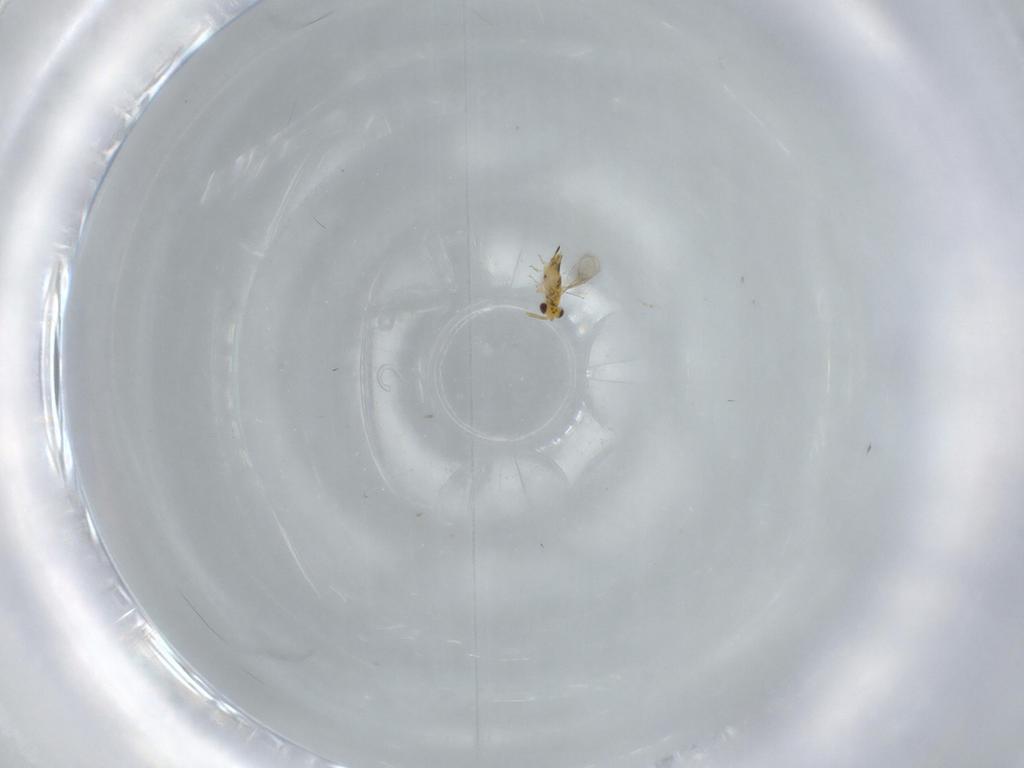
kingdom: Animalia
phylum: Arthropoda
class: Insecta
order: Hymenoptera
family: Aphelinidae
